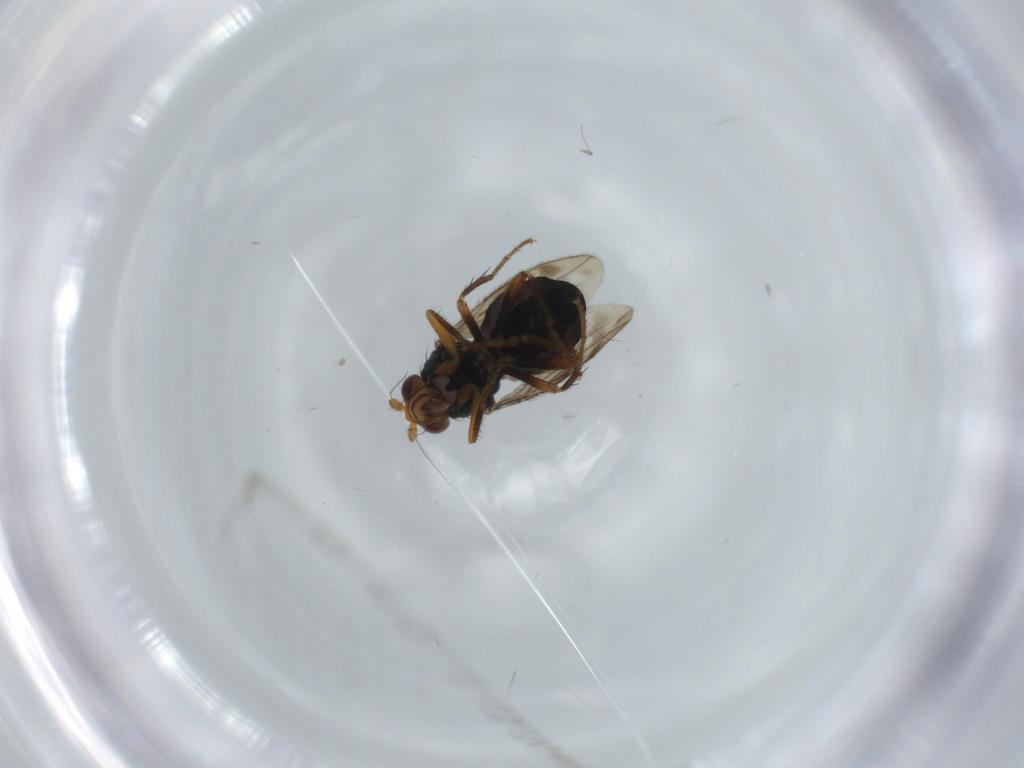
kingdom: Animalia
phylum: Arthropoda
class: Insecta
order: Diptera
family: Sphaeroceridae
